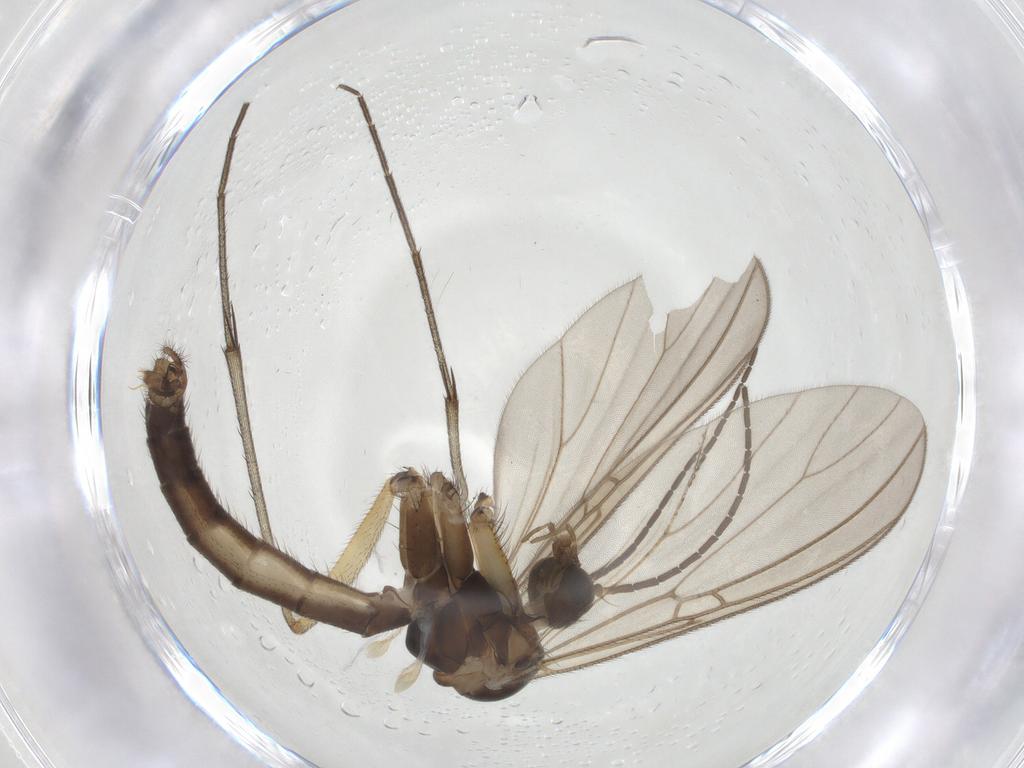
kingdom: Animalia
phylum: Arthropoda
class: Insecta
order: Diptera
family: Mycetophilidae
